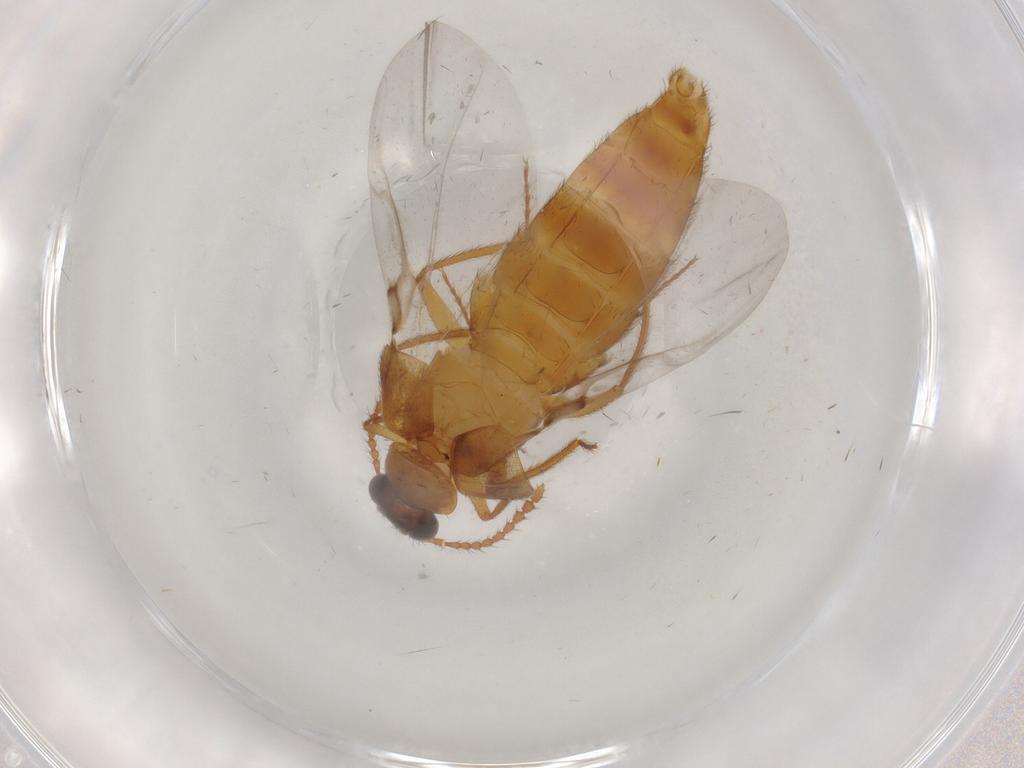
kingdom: Animalia
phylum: Arthropoda
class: Insecta
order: Coleoptera
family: Staphylinidae
